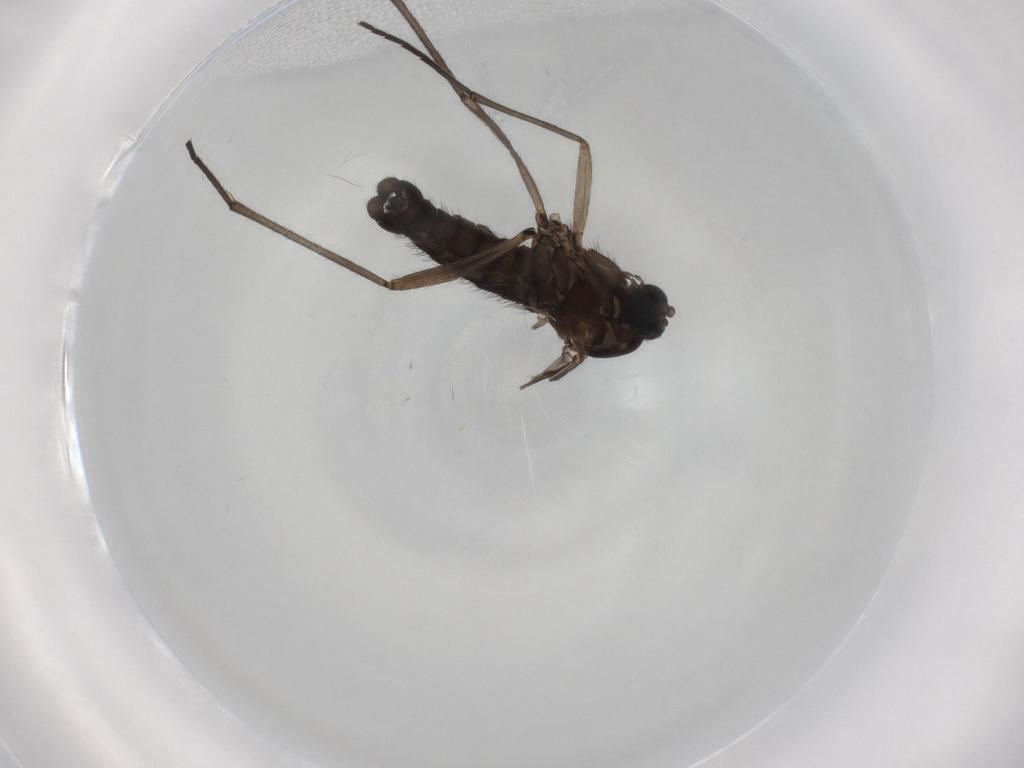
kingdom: Animalia
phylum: Arthropoda
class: Insecta
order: Diptera
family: Sciaridae
